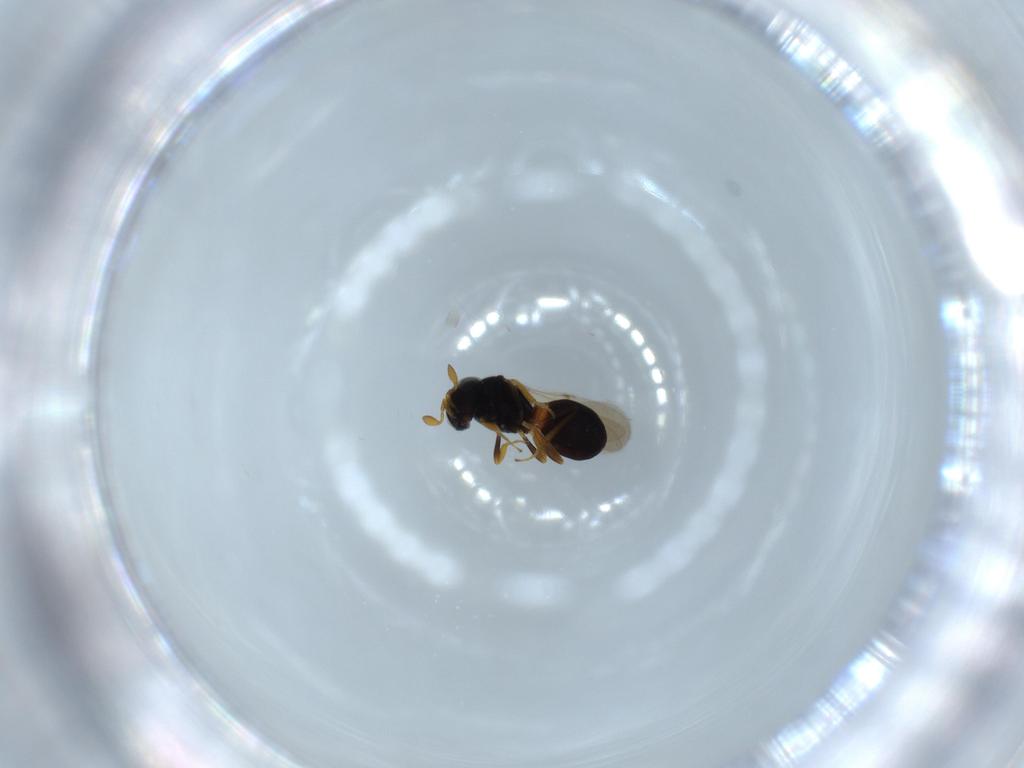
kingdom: Animalia
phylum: Arthropoda
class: Insecta
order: Hymenoptera
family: Scelionidae
